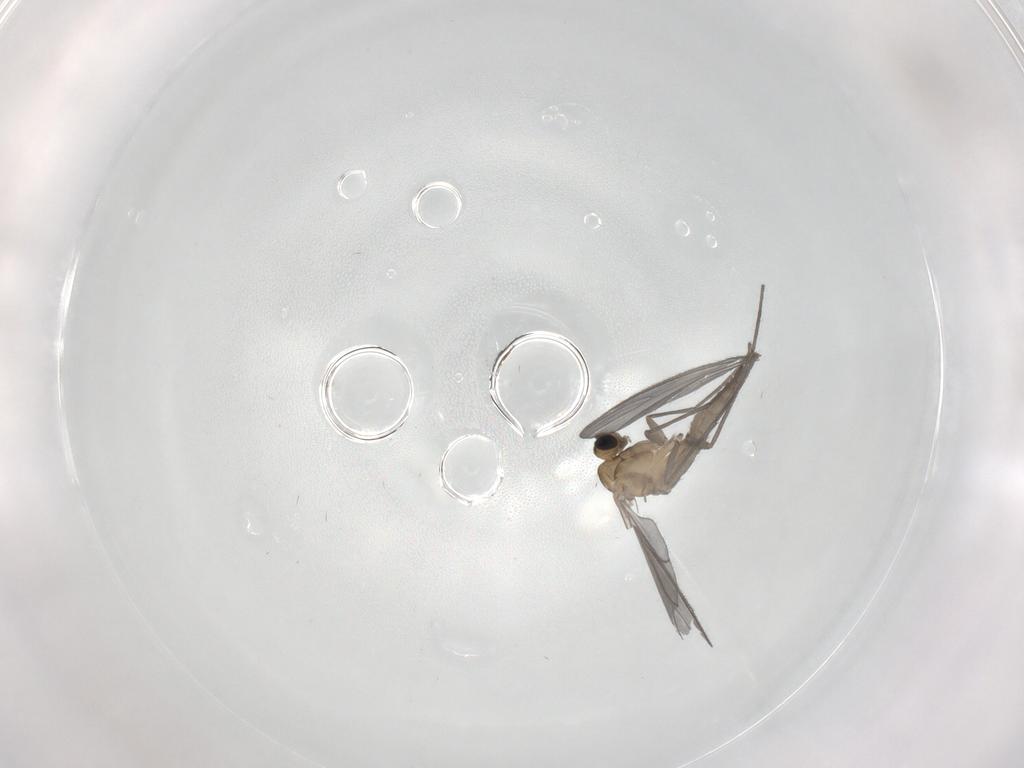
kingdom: Animalia
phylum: Arthropoda
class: Insecta
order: Diptera
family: Sciaridae
